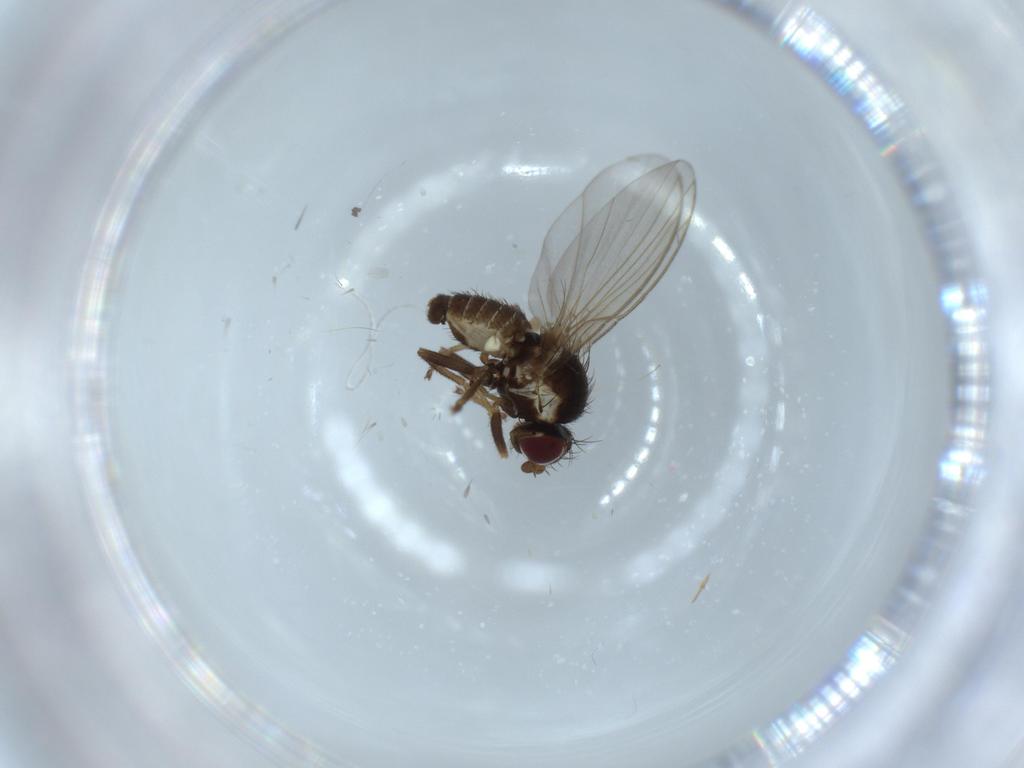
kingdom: Animalia
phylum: Arthropoda
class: Insecta
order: Diptera
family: Agromyzidae
